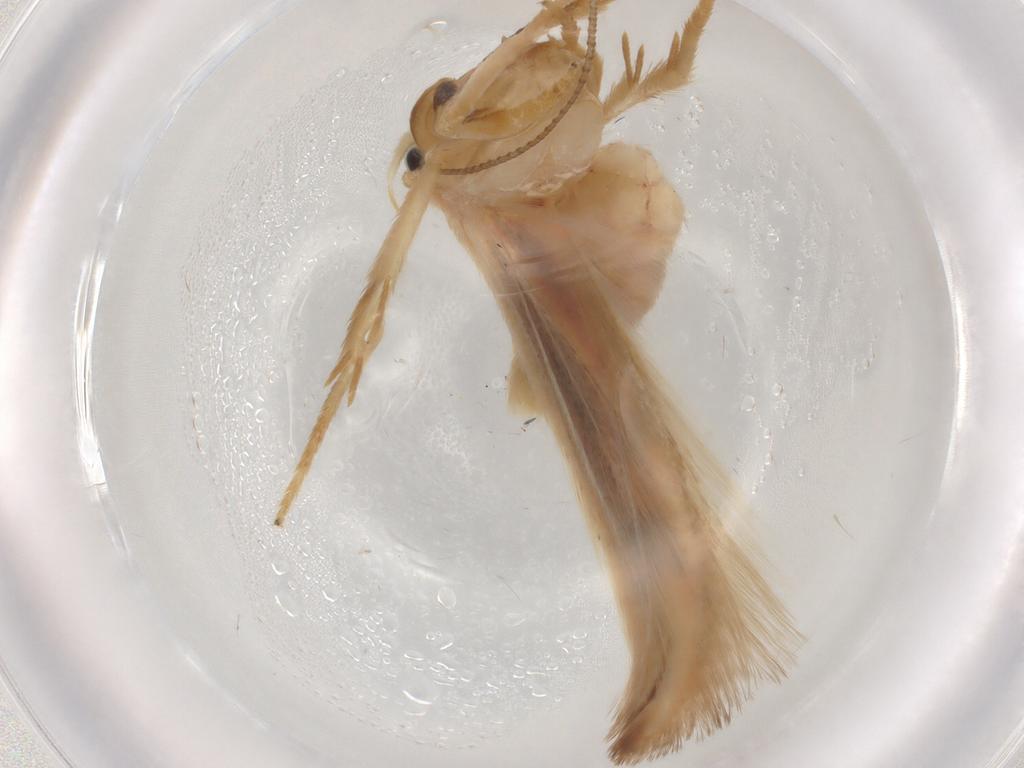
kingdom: Animalia
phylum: Arthropoda
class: Insecta
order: Lepidoptera
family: Geometridae
